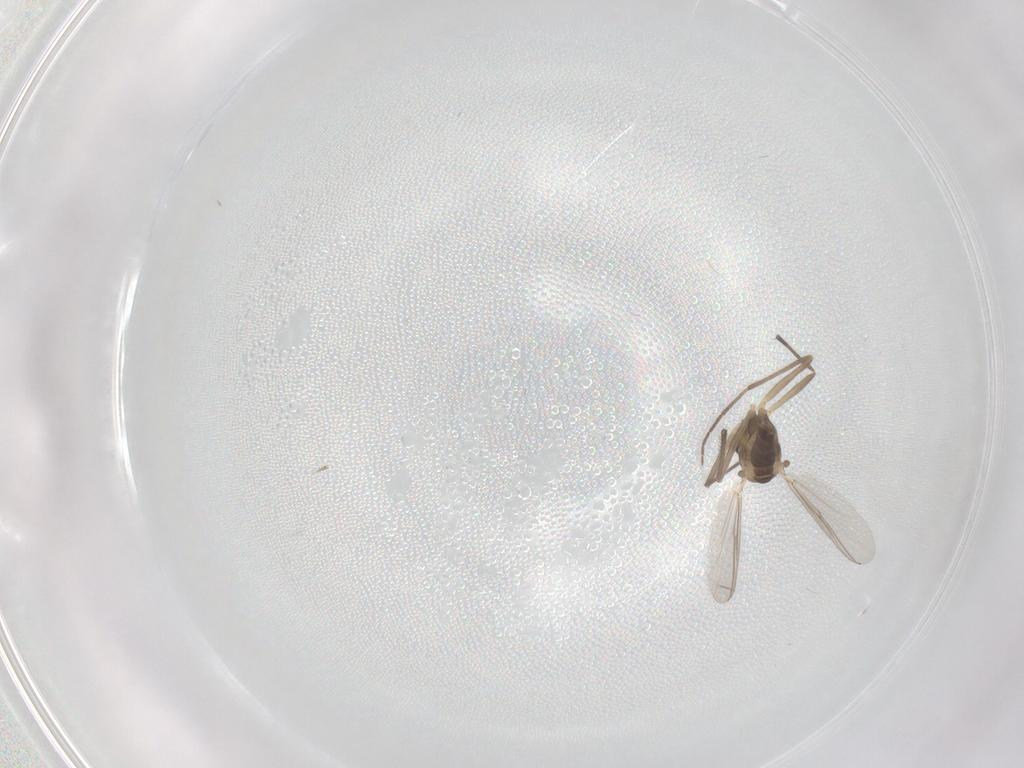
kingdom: Animalia
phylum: Arthropoda
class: Insecta
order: Diptera
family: Chironomidae
